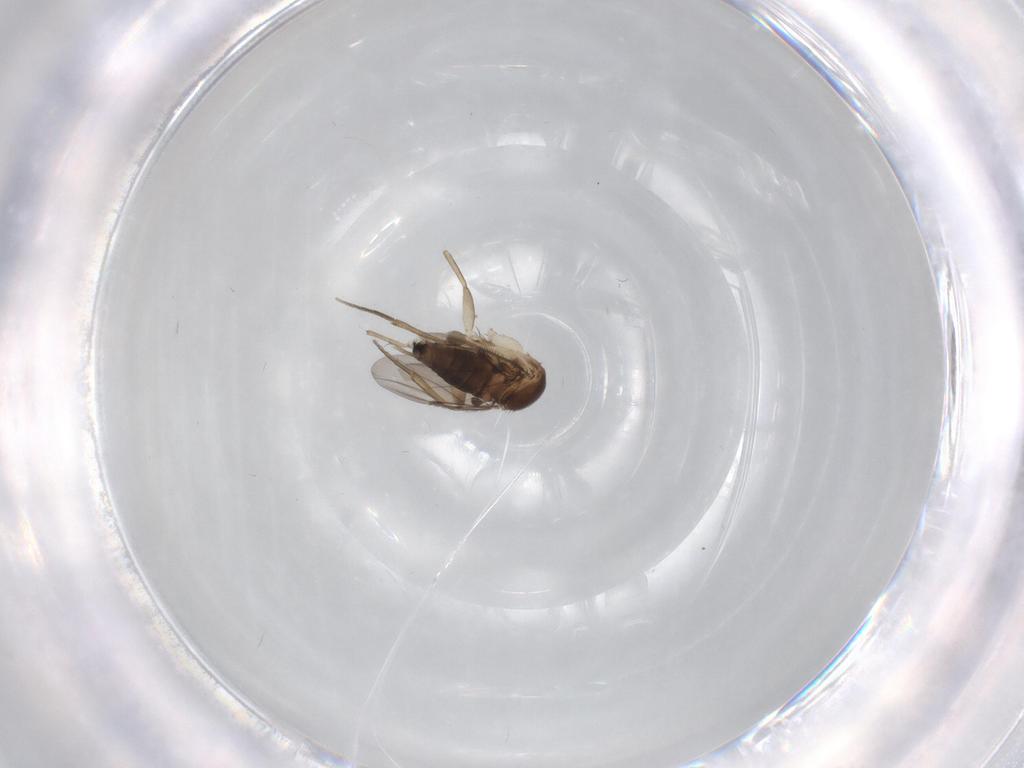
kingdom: Animalia
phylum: Arthropoda
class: Insecta
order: Diptera
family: Phoridae
